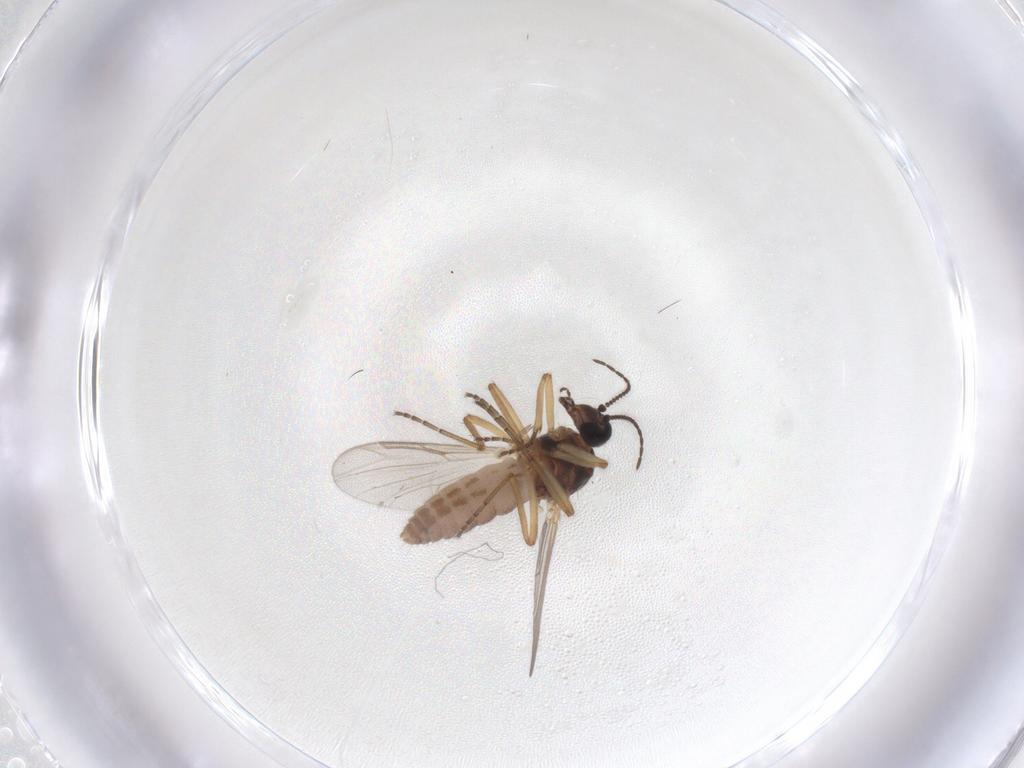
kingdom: Animalia
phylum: Arthropoda
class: Insecta
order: Diptera
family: Ceratopogonidae
